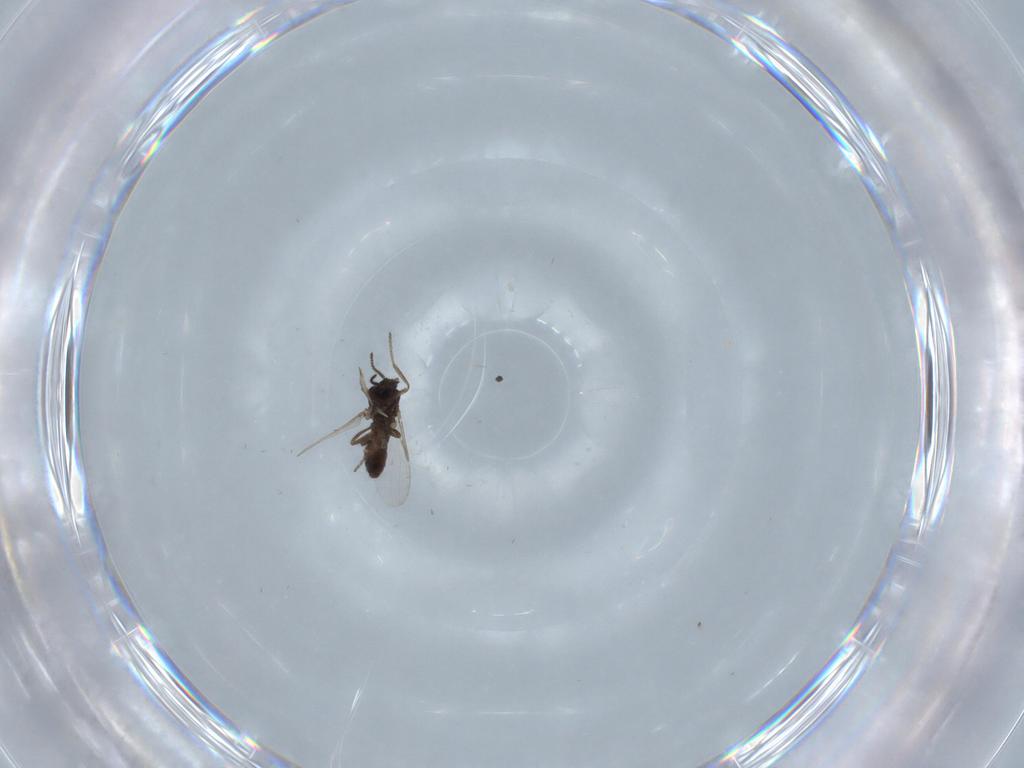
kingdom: Animalia
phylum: Arthropoda
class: Insecta
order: Diptera
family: Ceratopogonidae
